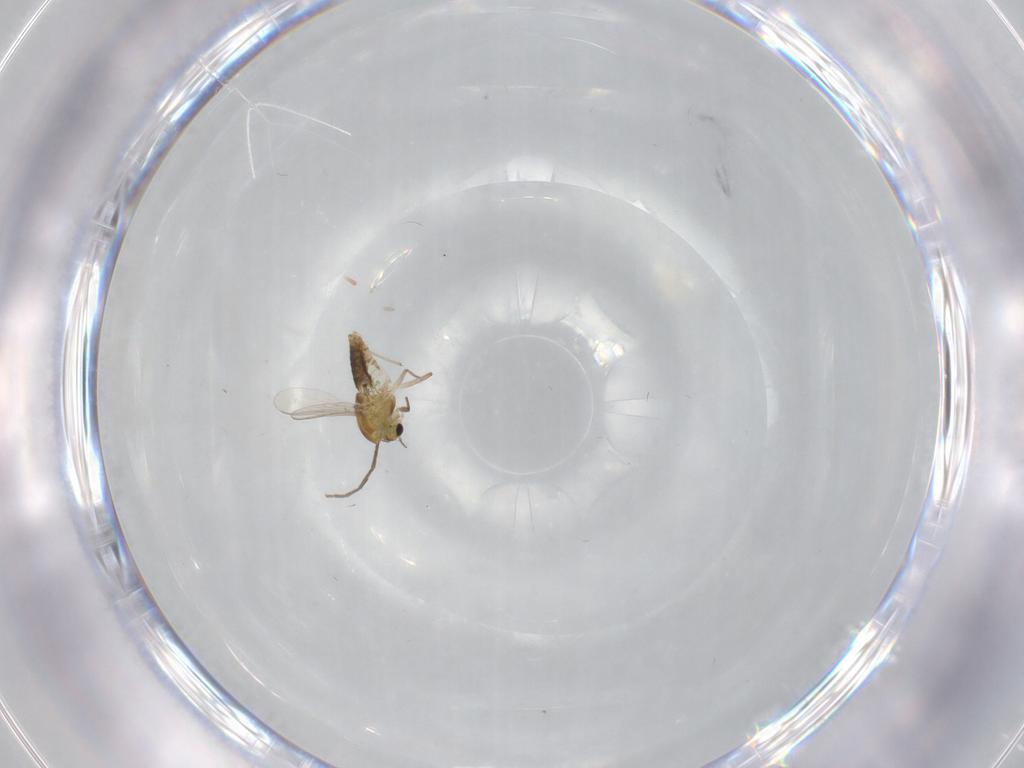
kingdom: Animalia
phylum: Arthropoda
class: Insecta
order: Diptera
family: Chironomidae
